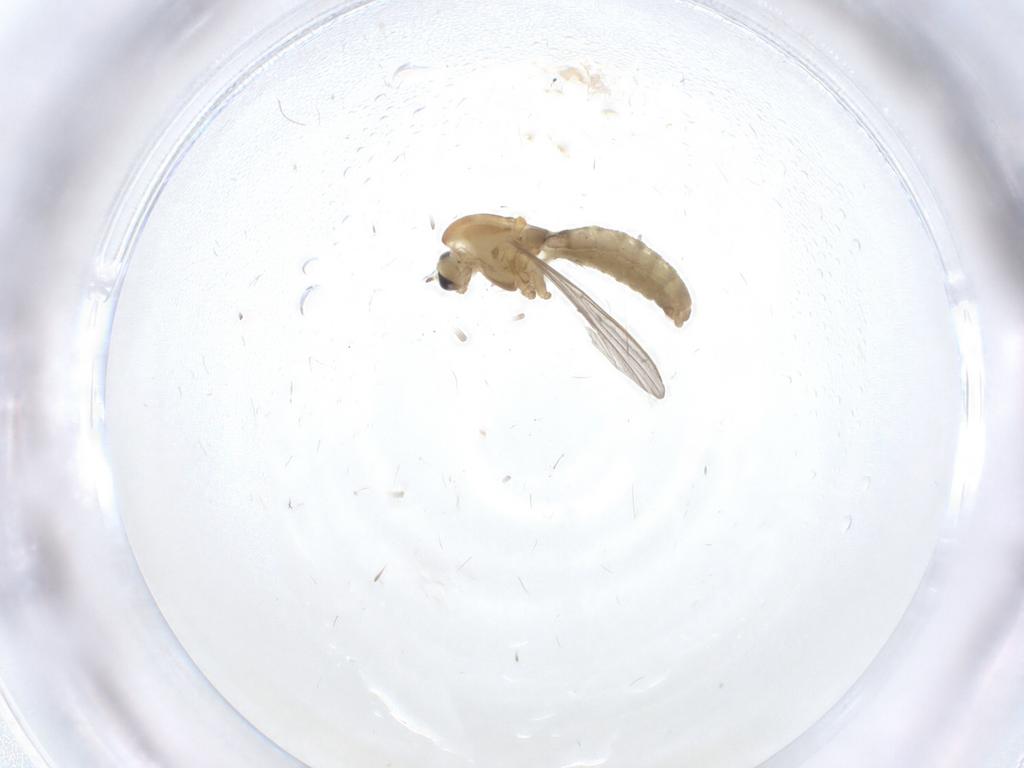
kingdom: Animalia
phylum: Arthropoda
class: Insecta
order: Diptera
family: Chironomidae
